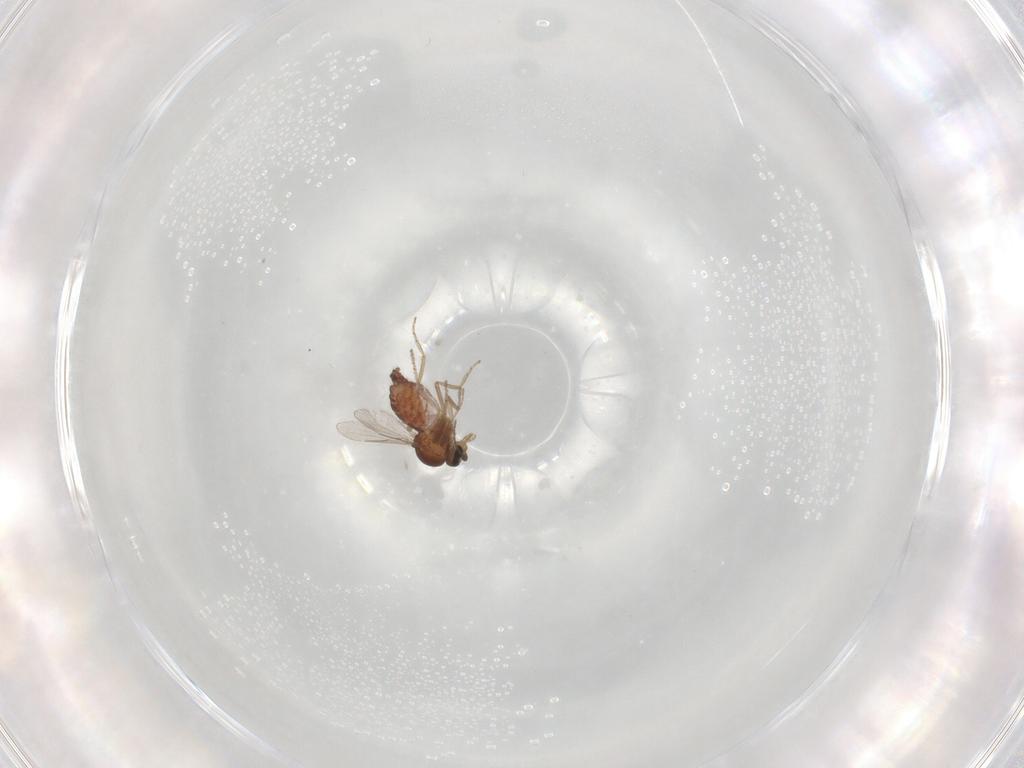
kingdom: Animalia
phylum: Arthropoda
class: Insecta
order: Diptera
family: Ceratopogonidae
